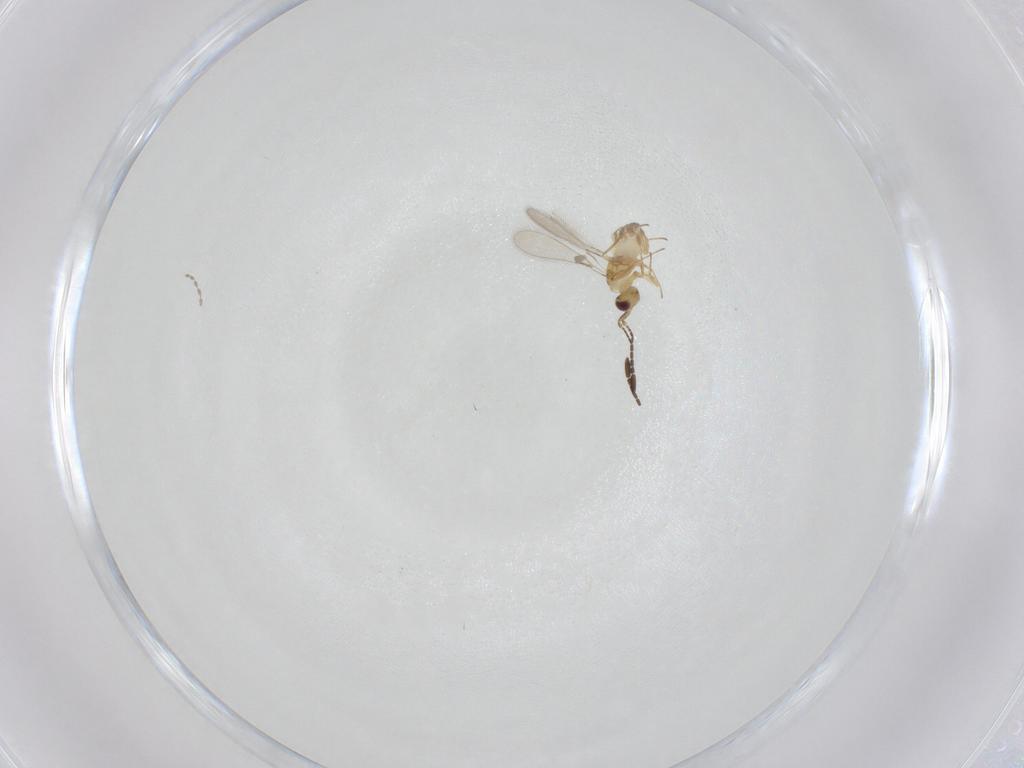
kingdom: Animalia
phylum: Arthropoda
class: Insecta
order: Hymenoptera
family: Mymaridae
